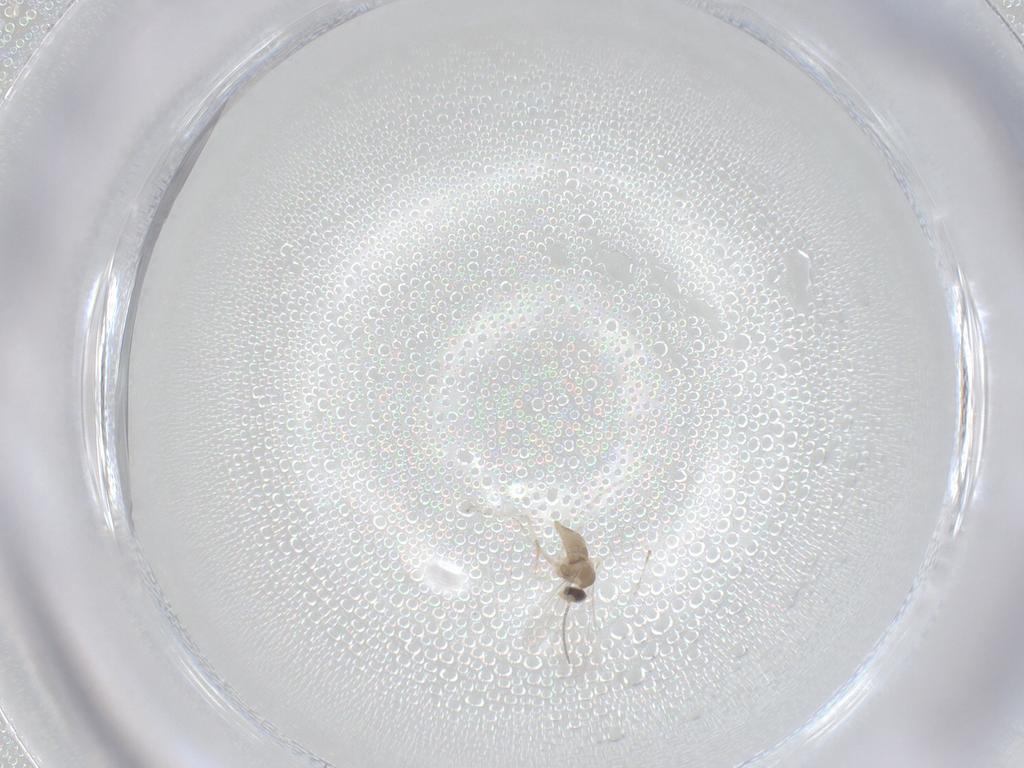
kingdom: Animalia
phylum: Arthropoda
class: Insecta
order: Diptera
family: Cecidomyiidae
